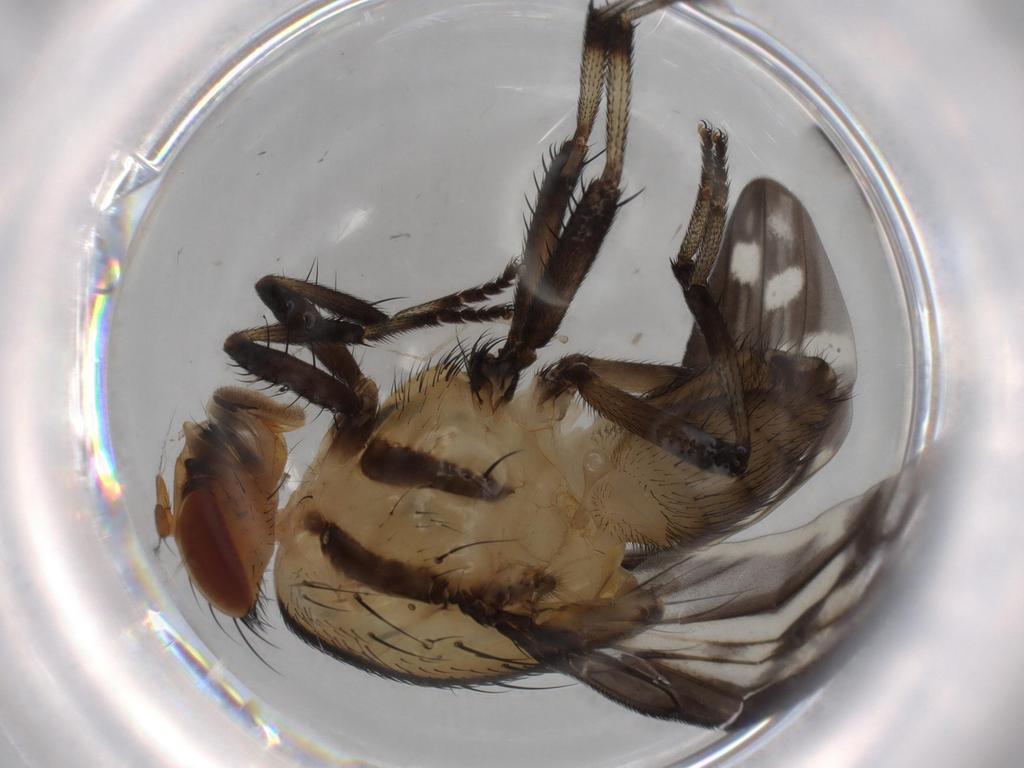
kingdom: Animalia
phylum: Arthropoda
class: Insecta
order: Diptera
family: Chironomidae
